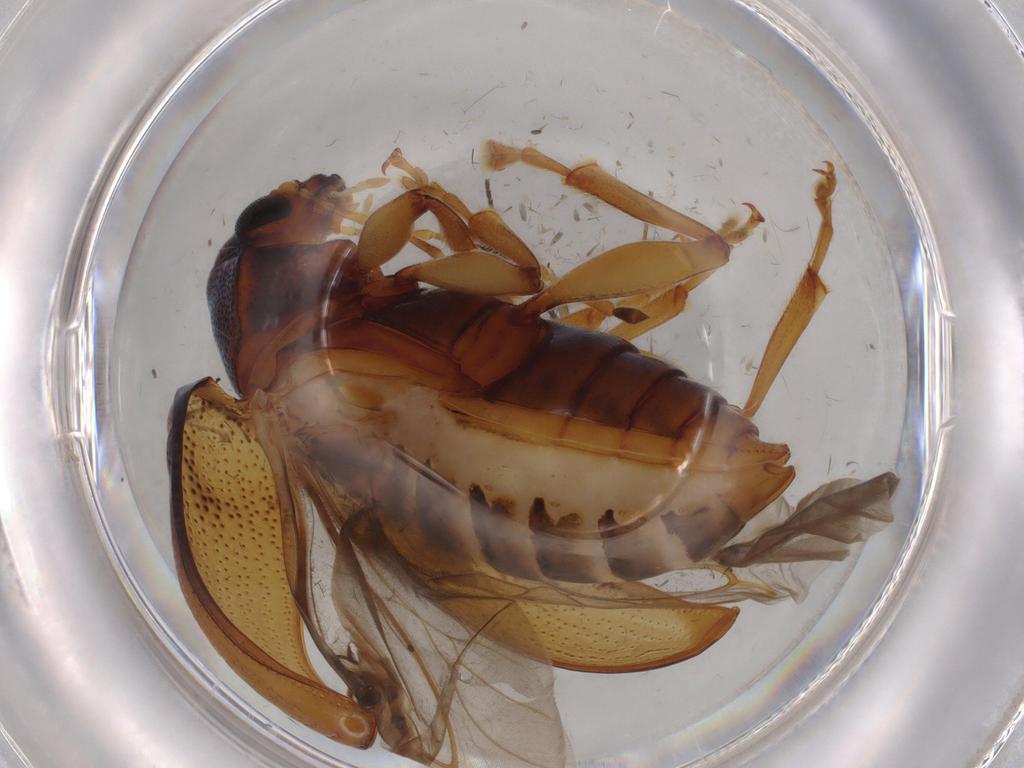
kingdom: Animalia
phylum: Arthropoda
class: Insecta
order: Coleoptera
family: Chrysomelidae
